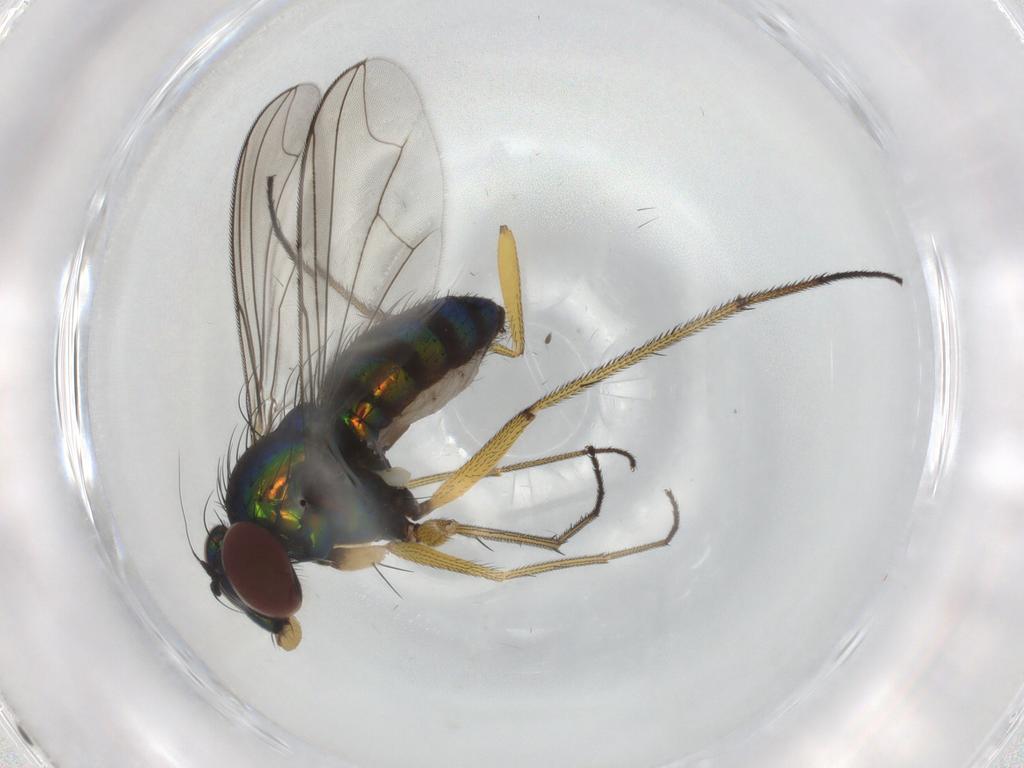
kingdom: Animalia
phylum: Arthropoda
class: Insecta
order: Diptera
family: Dolichopodidae
